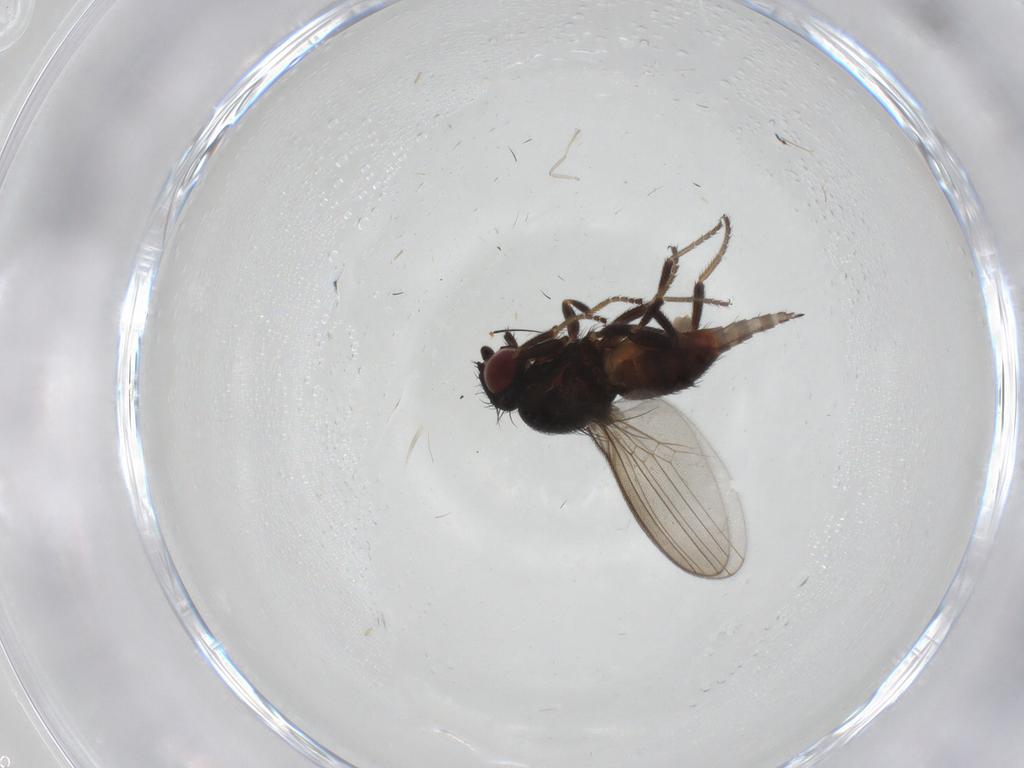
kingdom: Animalia
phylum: Arthropoda
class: Insecta
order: Diptera
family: Milichiidae
